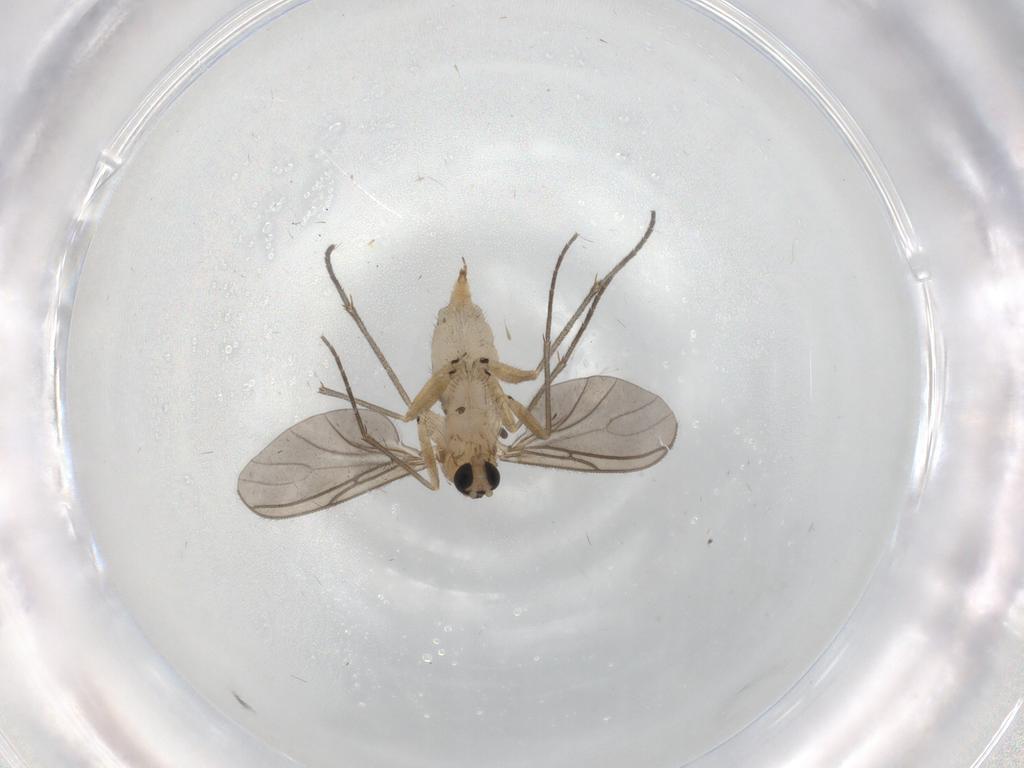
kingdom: Animalia
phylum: Arthropoda
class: Insecta
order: Diptera
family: Sciaridae
